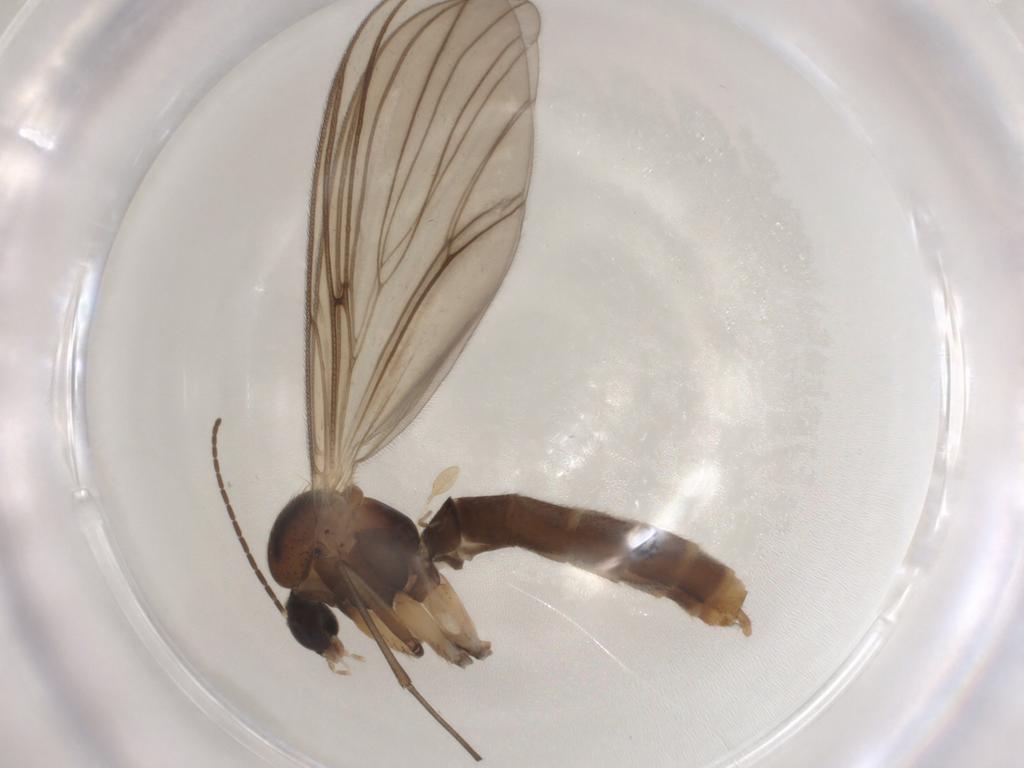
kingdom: Animalia
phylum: Arthropoda
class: Insecta
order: Diptera
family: Mycetophilidae
